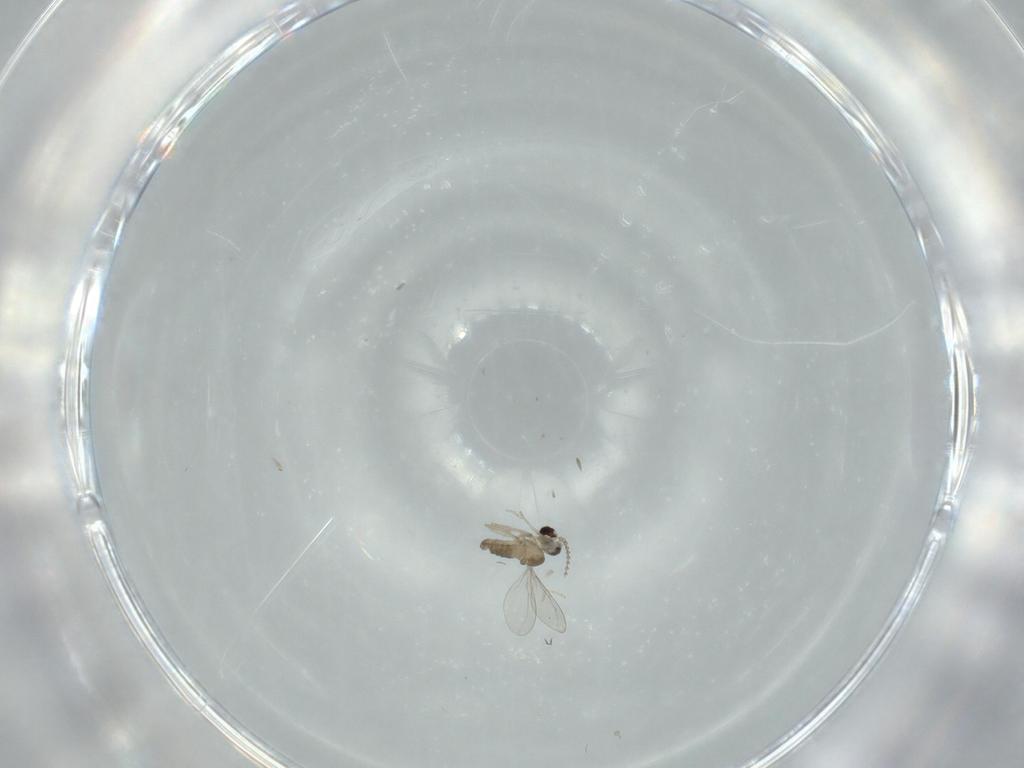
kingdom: Animalia
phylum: Arthropoda
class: Insecta
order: Diptera
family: Cecidomyiidae
